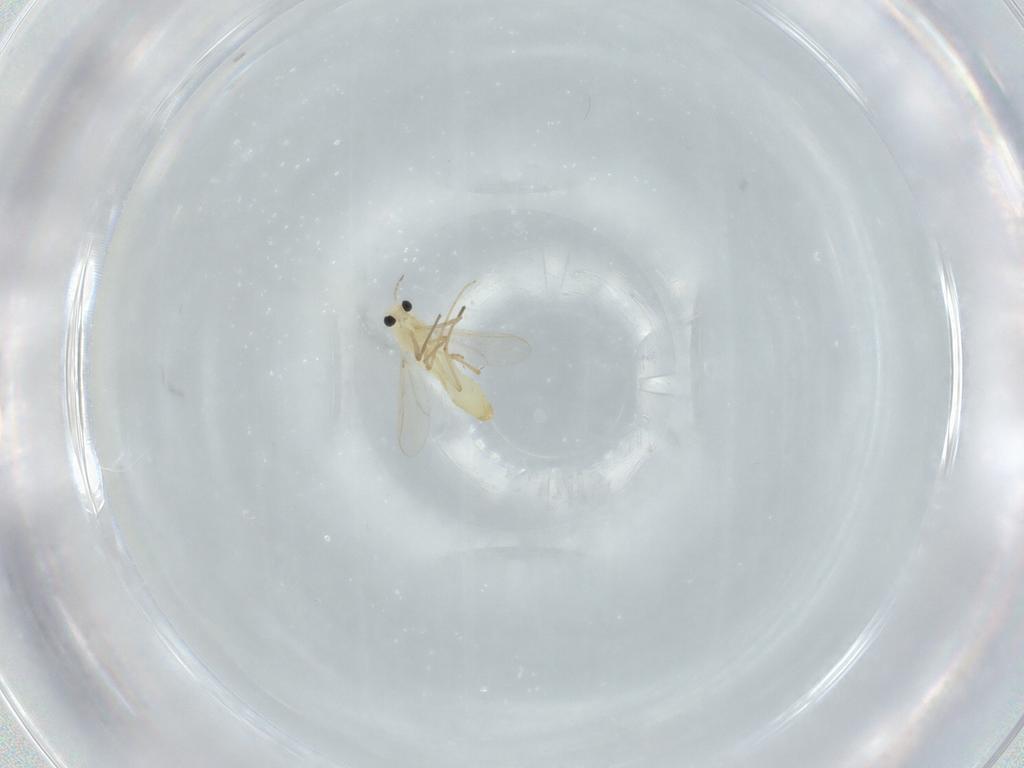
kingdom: Animalia
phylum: Arthropoda
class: Insecta
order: Diptera
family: Chironomidae
